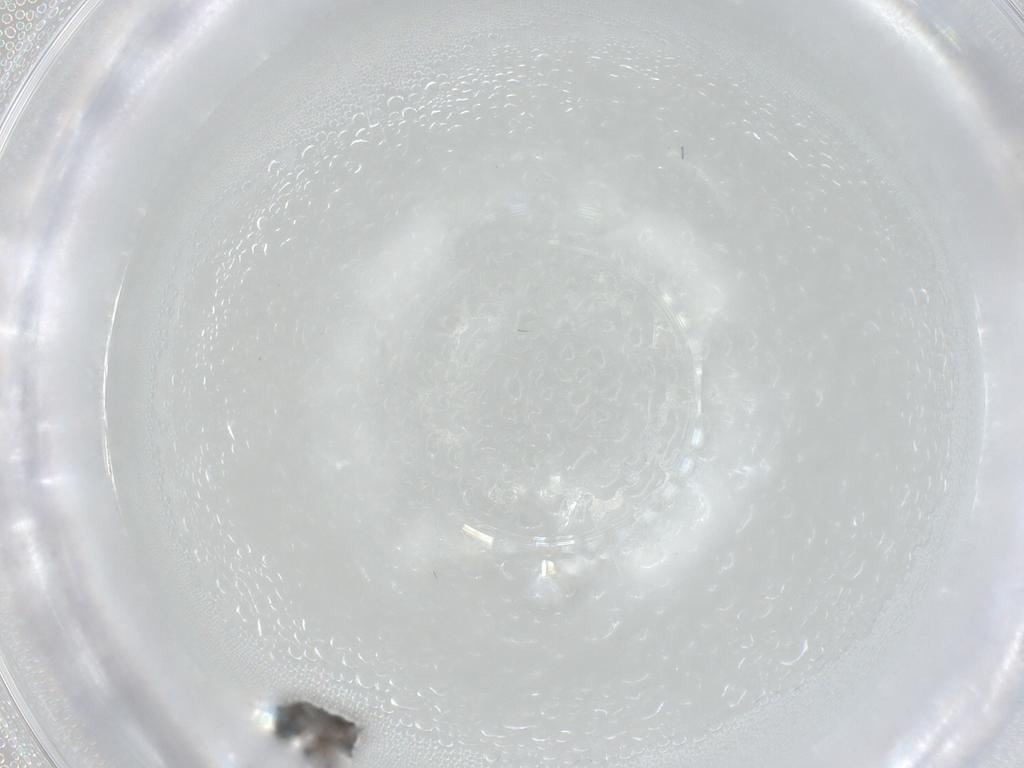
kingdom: Animalia
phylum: Arthropoda
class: Insecta
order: Diptera
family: Phoridae
